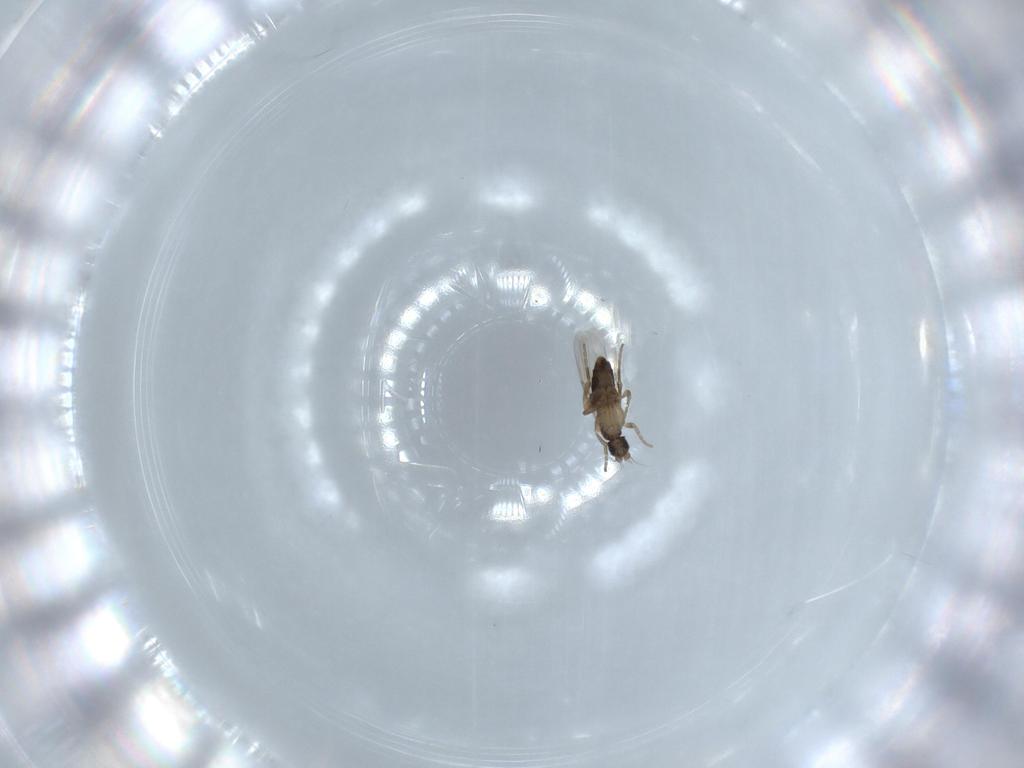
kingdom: Animalia
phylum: Arthropoda
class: Insecta
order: Diptera
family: Phoridae
